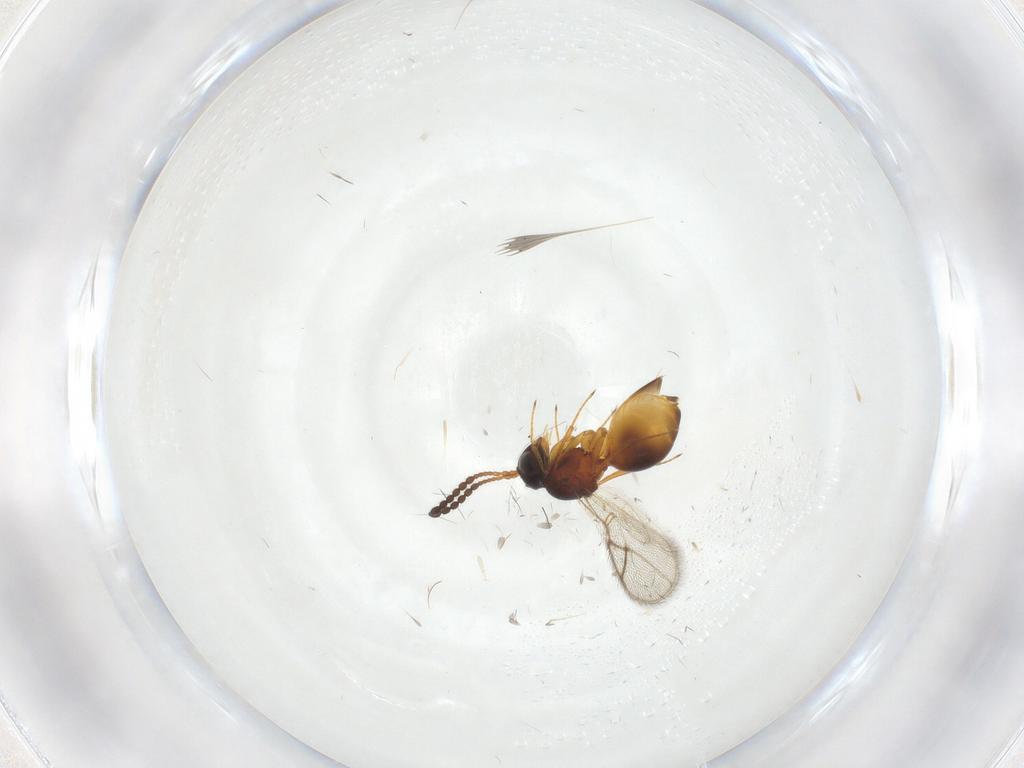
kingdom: Animalia
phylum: Arthropoda
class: Insecta
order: Hymenoptera
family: Figitidae
